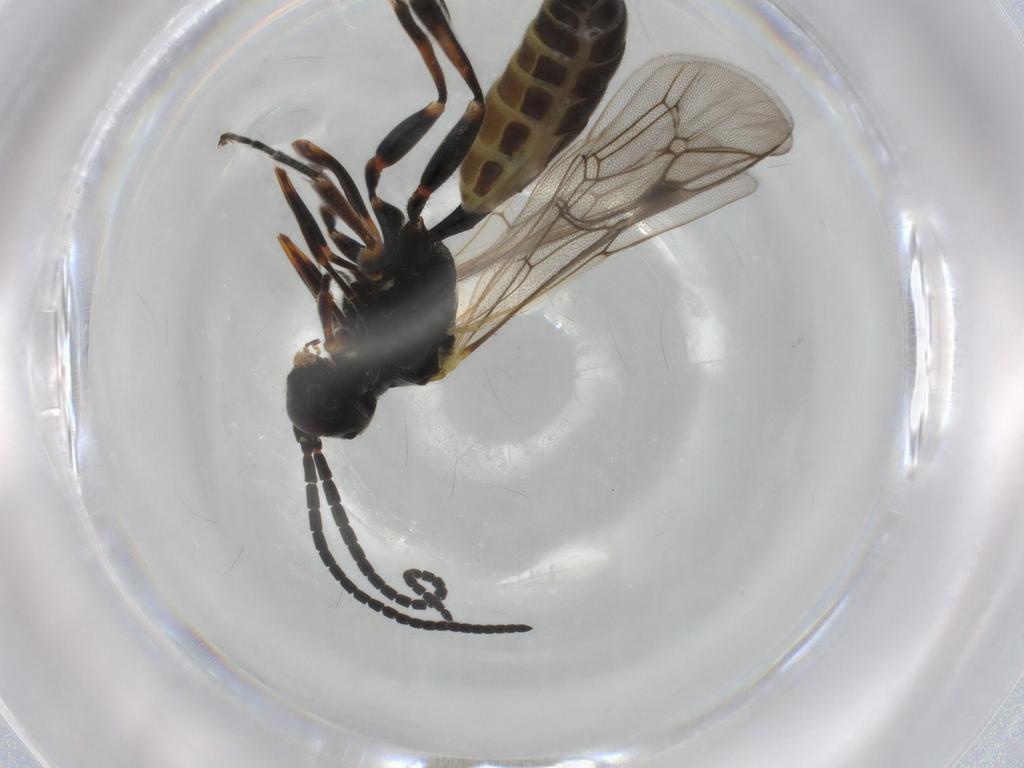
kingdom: Animalia
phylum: Arthropoda
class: Insecta
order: Hymenoptera
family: Ichneumonidae
